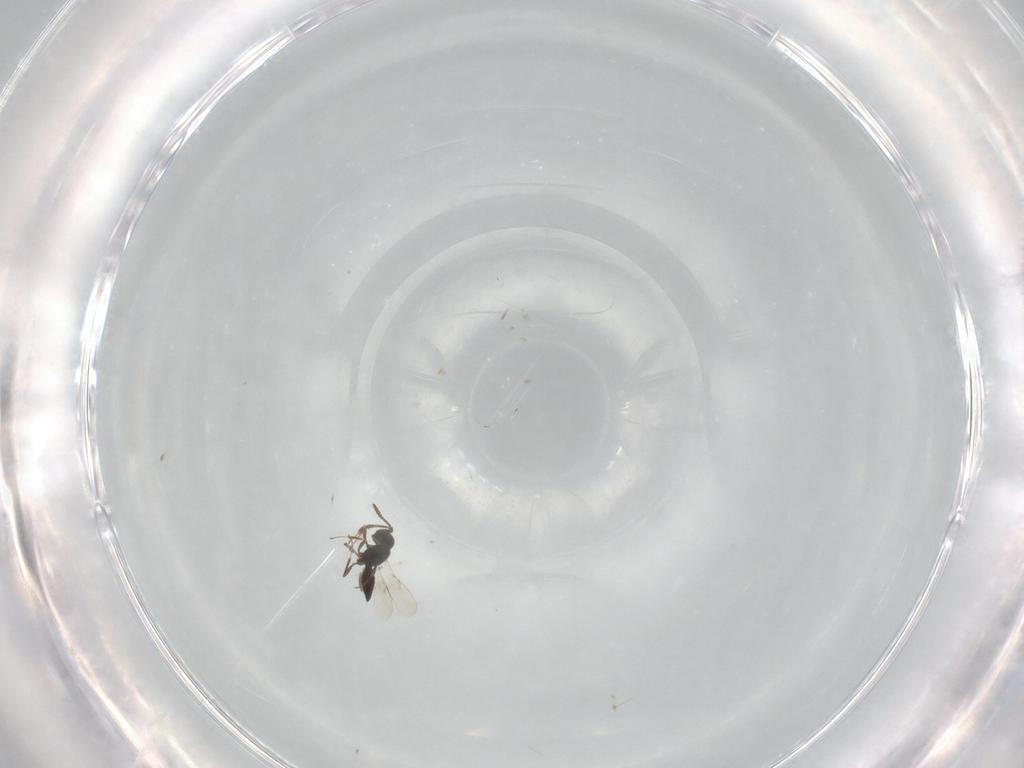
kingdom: Animalia
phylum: Arthropoda
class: Insecta
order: Hymenoptera
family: Scelionidae
